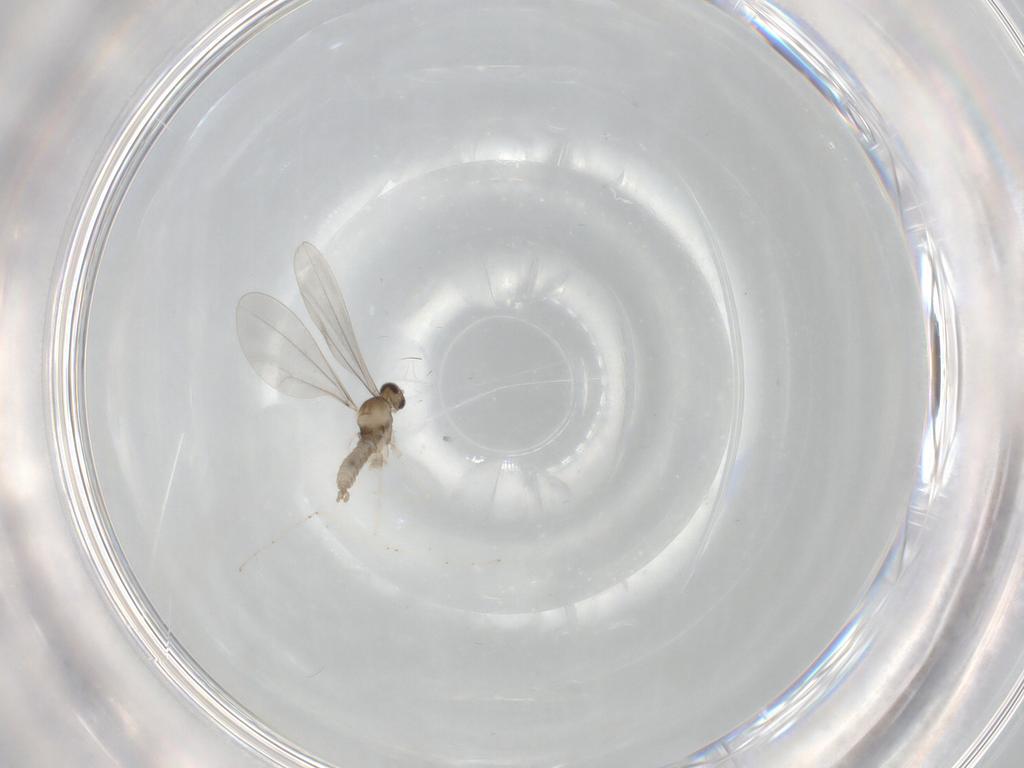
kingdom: Animalia
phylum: Arthropoda
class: Insecta
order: Diptera
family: Cecidomyiidae
